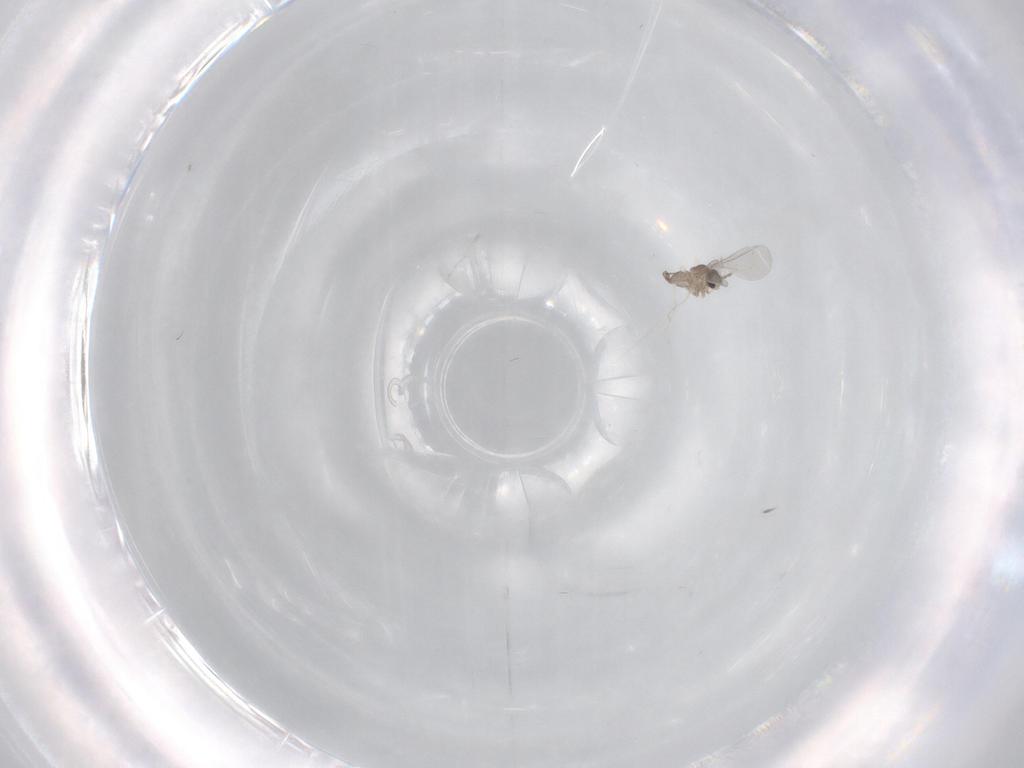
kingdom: Animalia
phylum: Arthropoda
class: Insecta
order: Diptera
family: Cecidomyiidae
